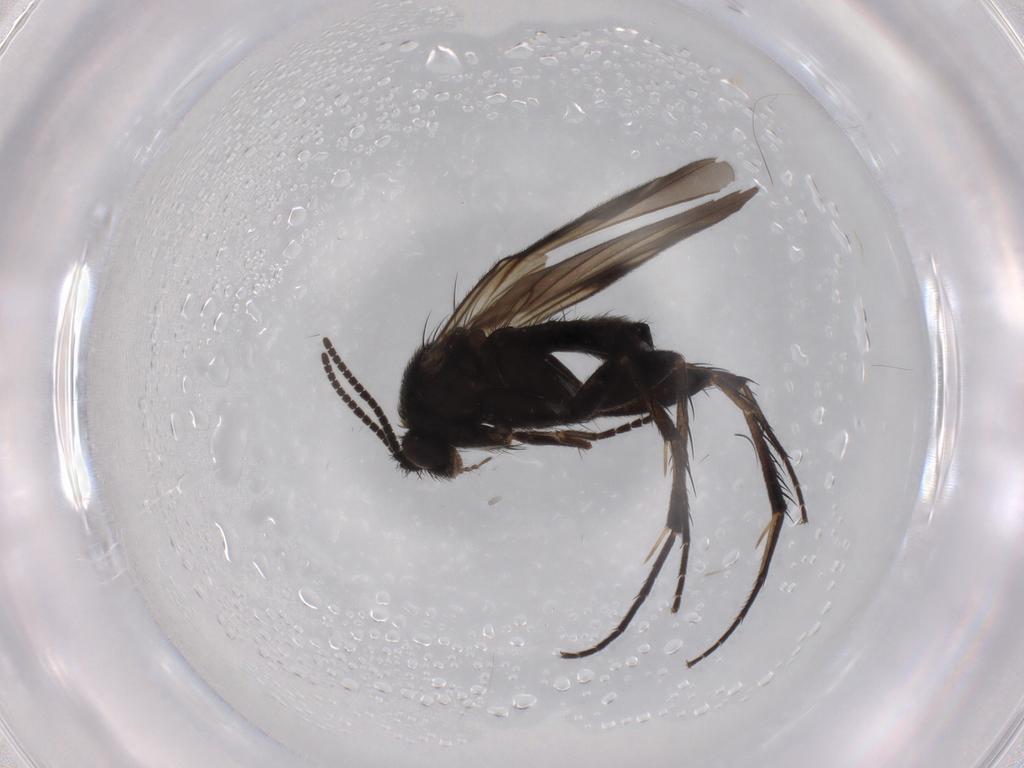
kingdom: Animalia
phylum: Arthropoda
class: Insecta
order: Diptera
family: Mycetophilidae
